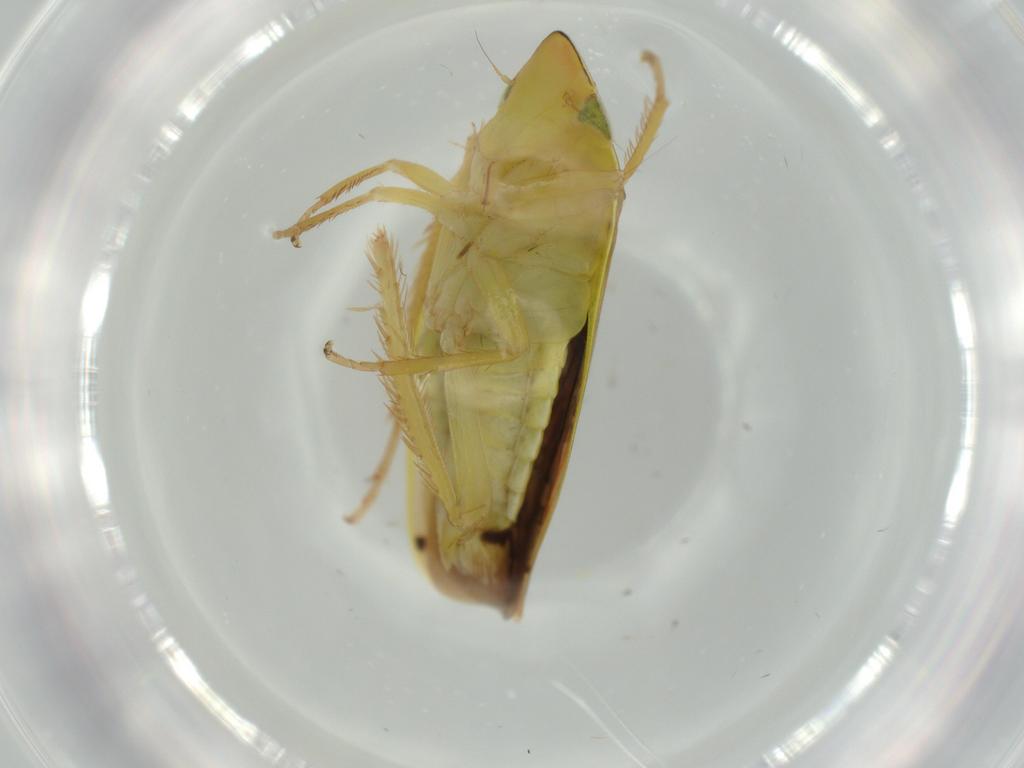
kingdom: Animalia
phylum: Arthropoda
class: Insecta
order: Hemiptera
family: Cicadellidae
